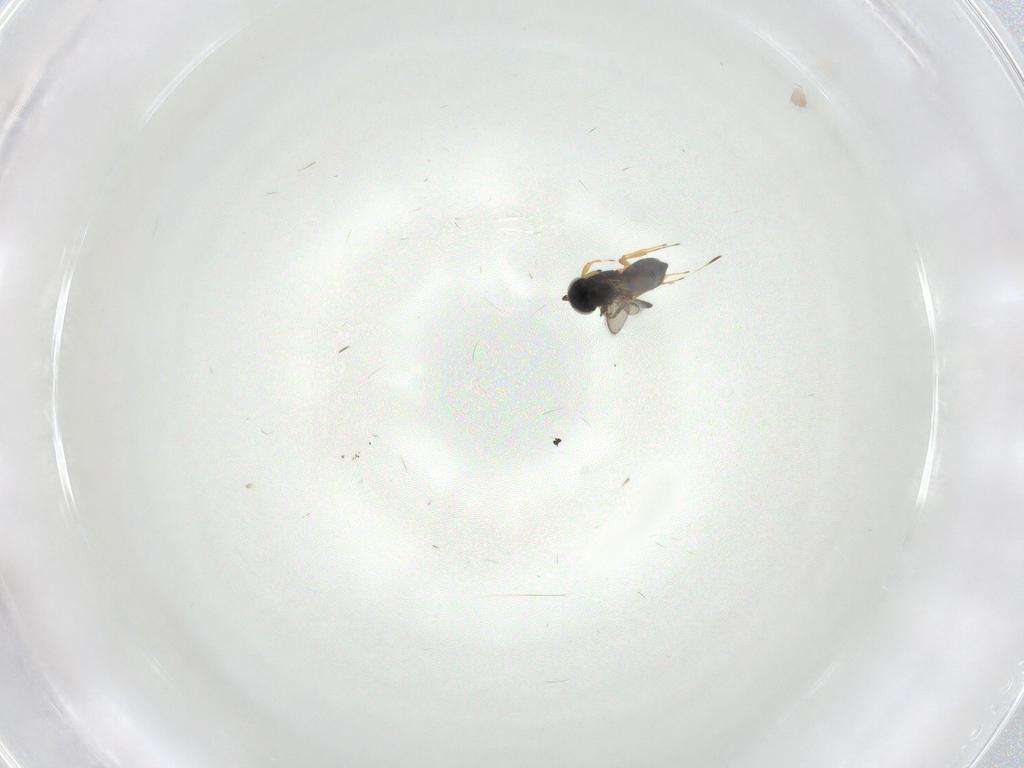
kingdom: Animalia
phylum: Arthropoda
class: Insecta
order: Hymenoptera
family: Scelionidae
